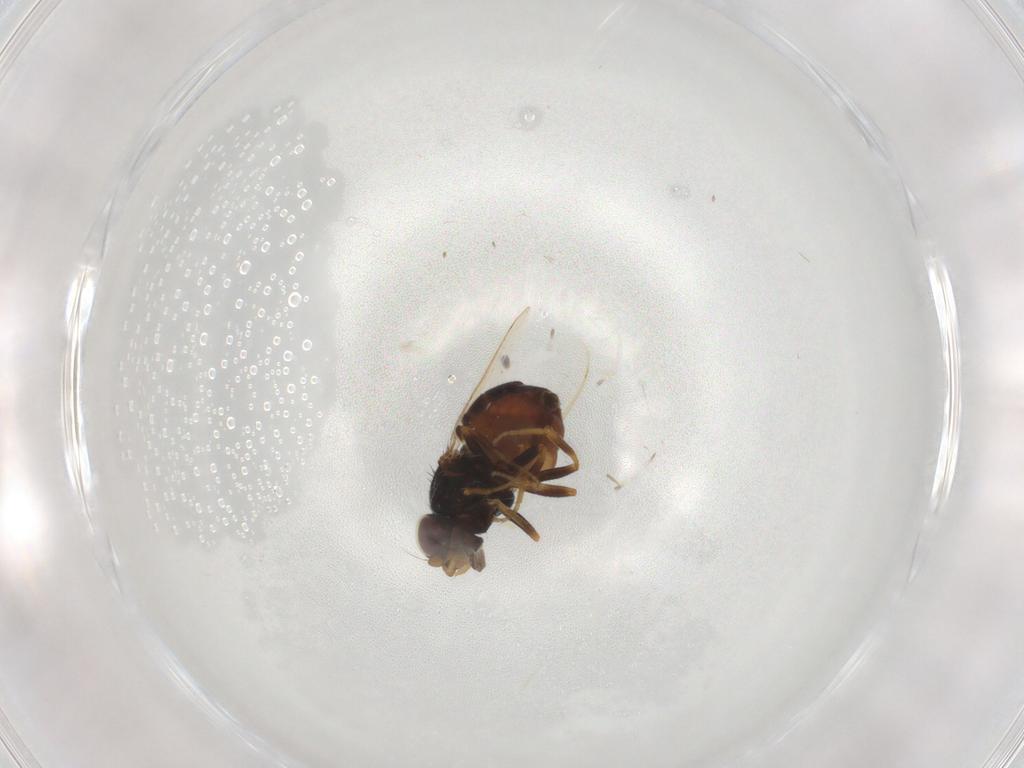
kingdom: Animalia
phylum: Arthropoda
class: Insecta
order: Diptera
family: Chloropidae
